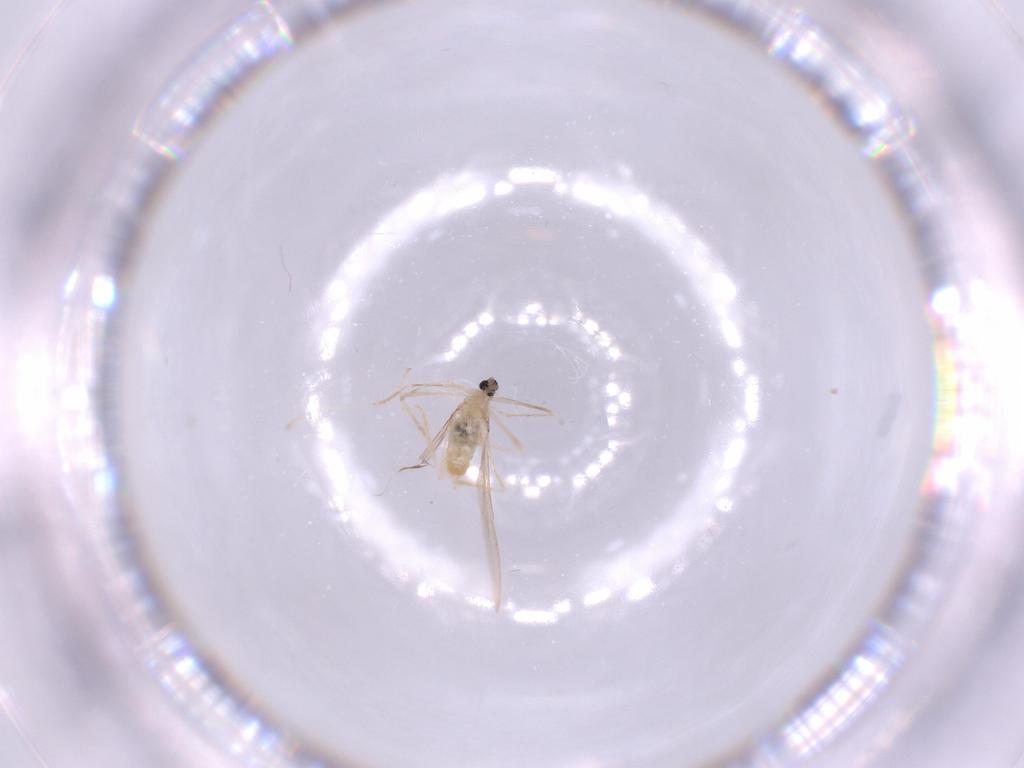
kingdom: Animalia
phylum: Arthropoda
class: Insecta
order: Diptera
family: Cecidomyiidae
